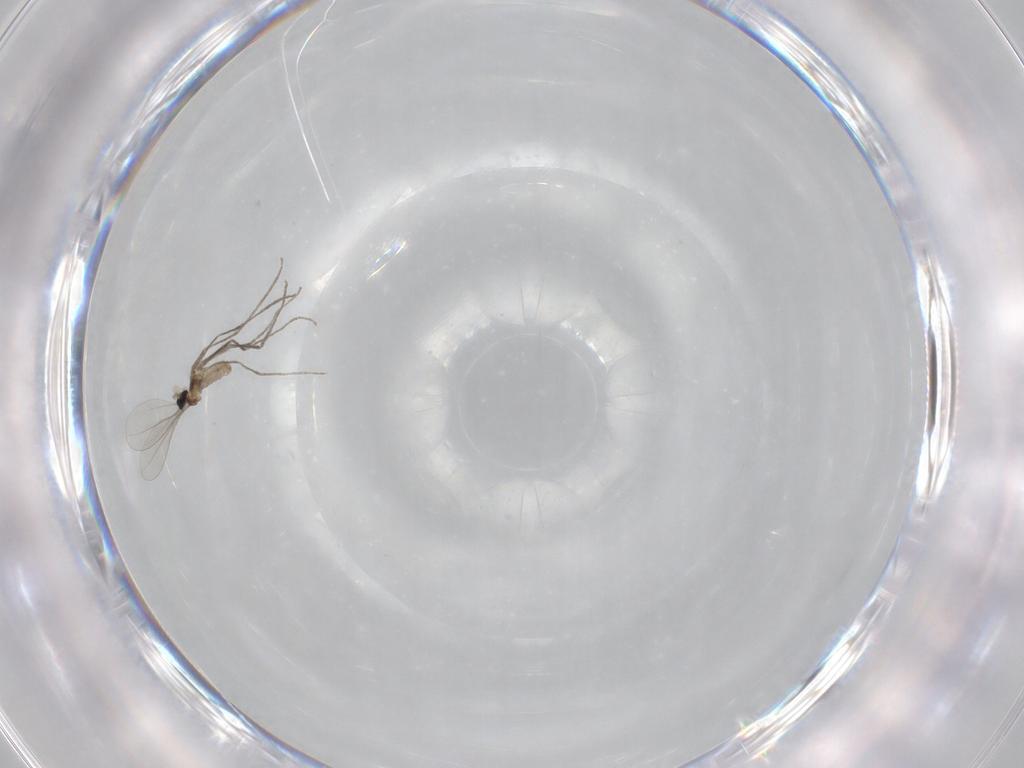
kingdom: Animalia
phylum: Arthropoda
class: Insecta
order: Diptera
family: Cecidomyiidae
